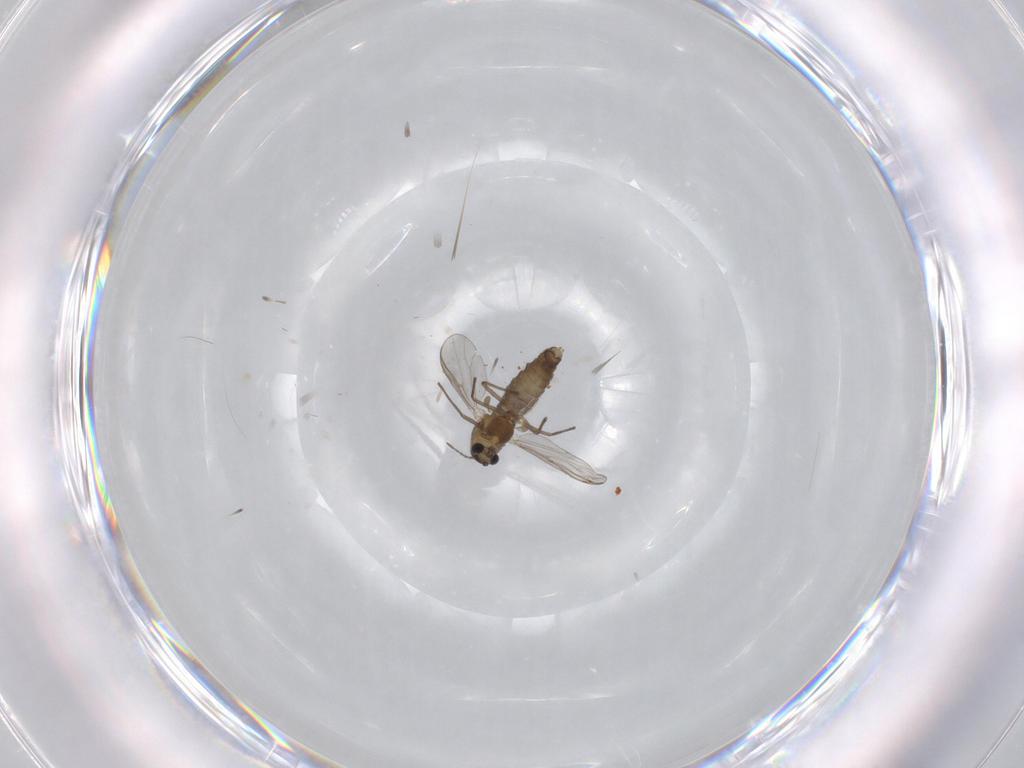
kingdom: Animalia
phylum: Arthropoda
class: Insecta
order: Diptera
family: Chironomidae
